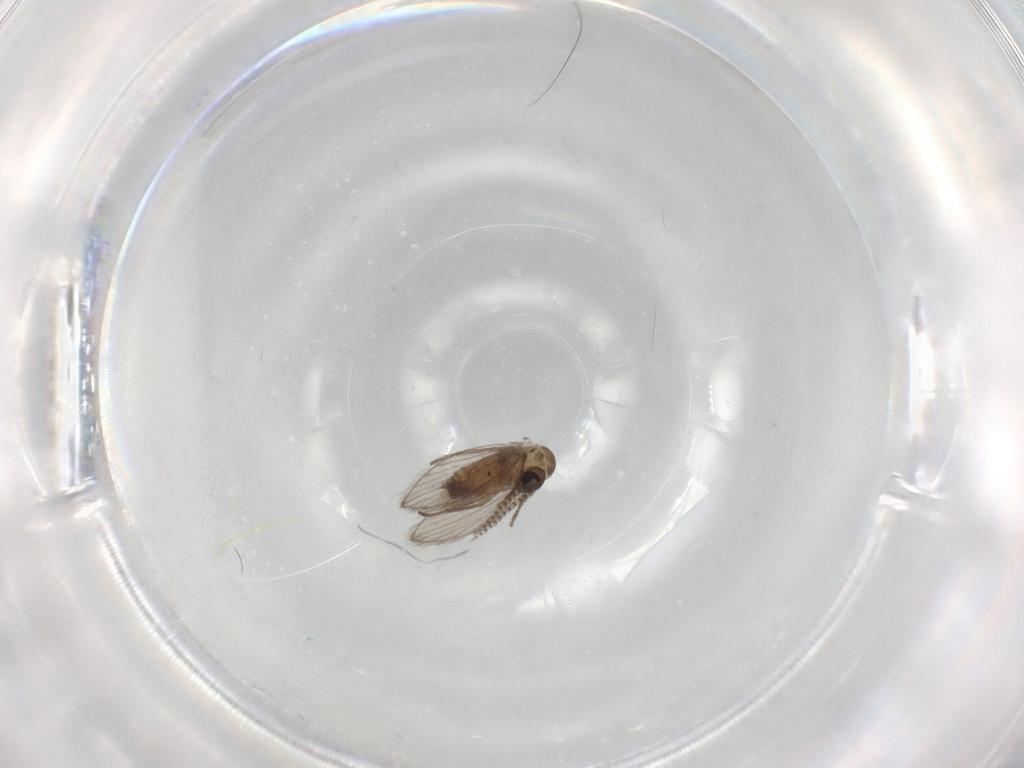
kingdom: Animalia
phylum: Arthropoda
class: Insecta
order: Diptera
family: Psychodidae
